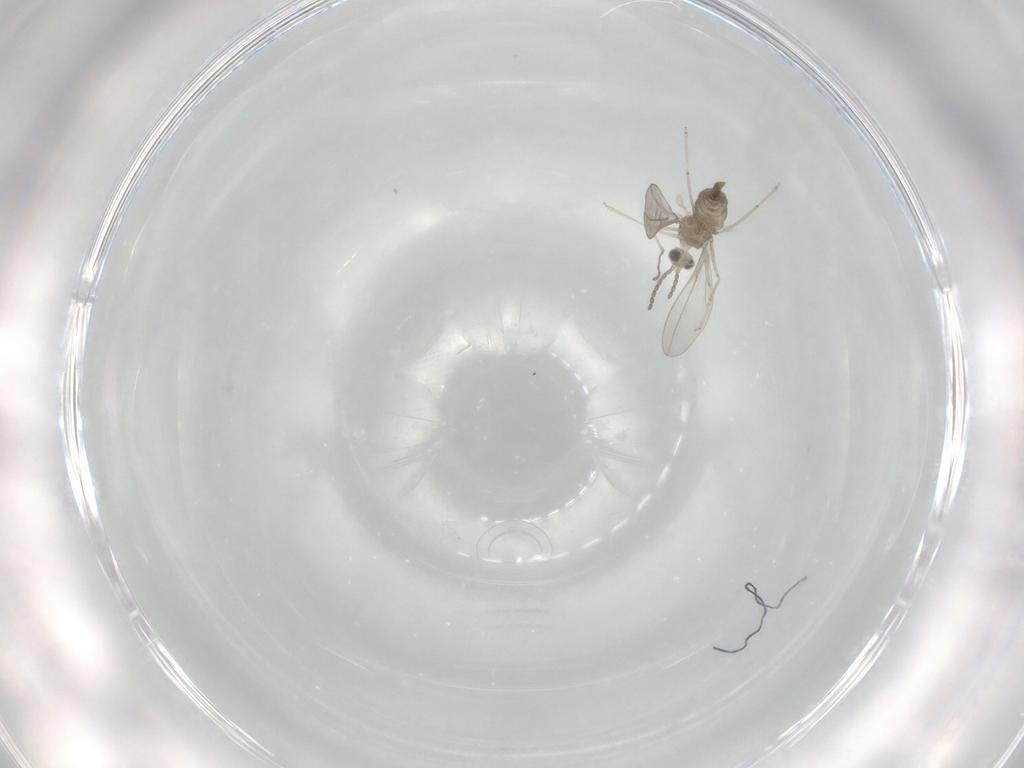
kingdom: Animalia
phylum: Arthropoda
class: Insecta
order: Diptera
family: Cecidomyiidae
